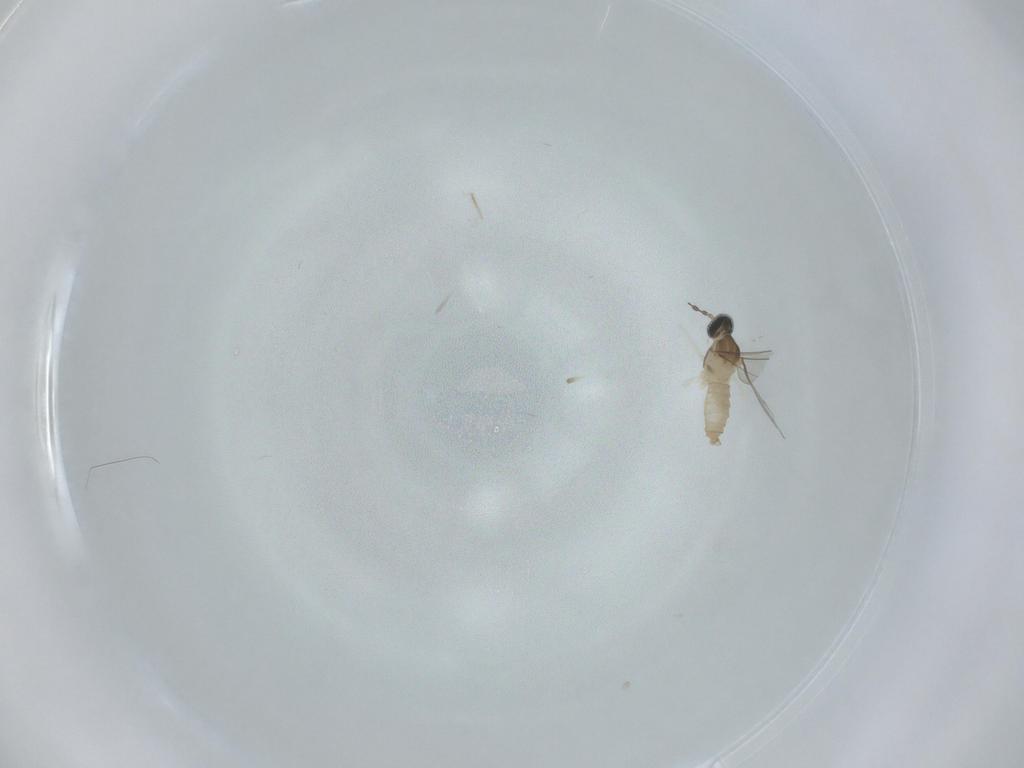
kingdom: Animalia
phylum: Arthropoda
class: Insecta
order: Diptera
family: Cecidomyiidae
